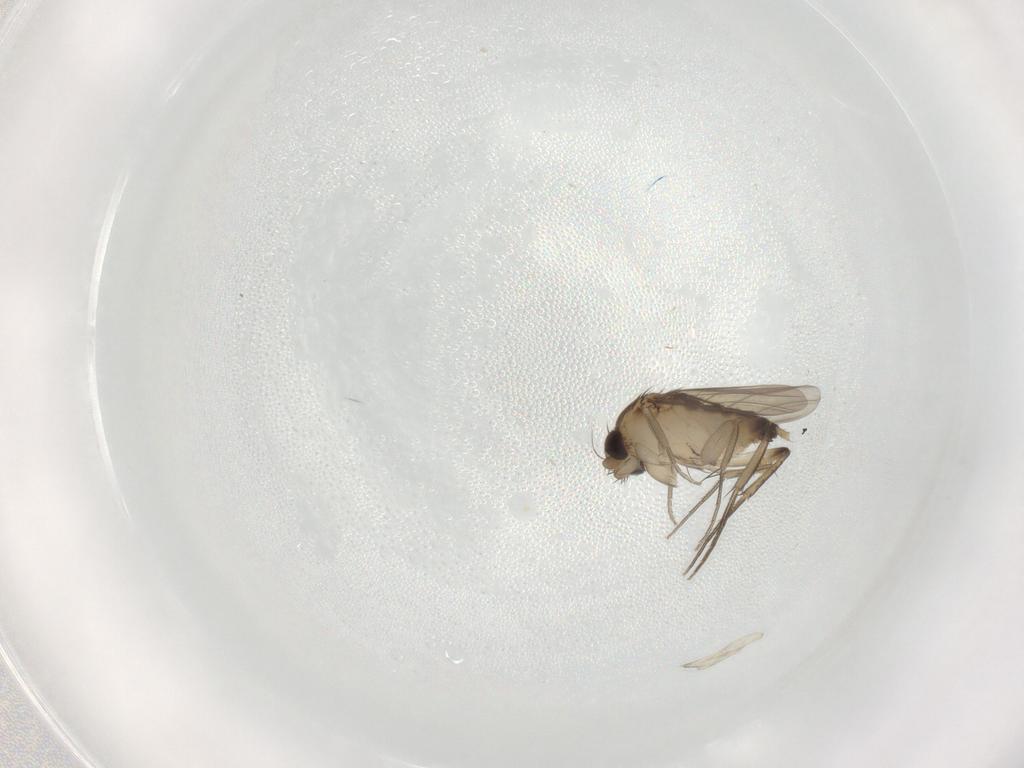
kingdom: Animalia
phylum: Arthropoda
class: Insecta
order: Diptera
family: Phoridae
